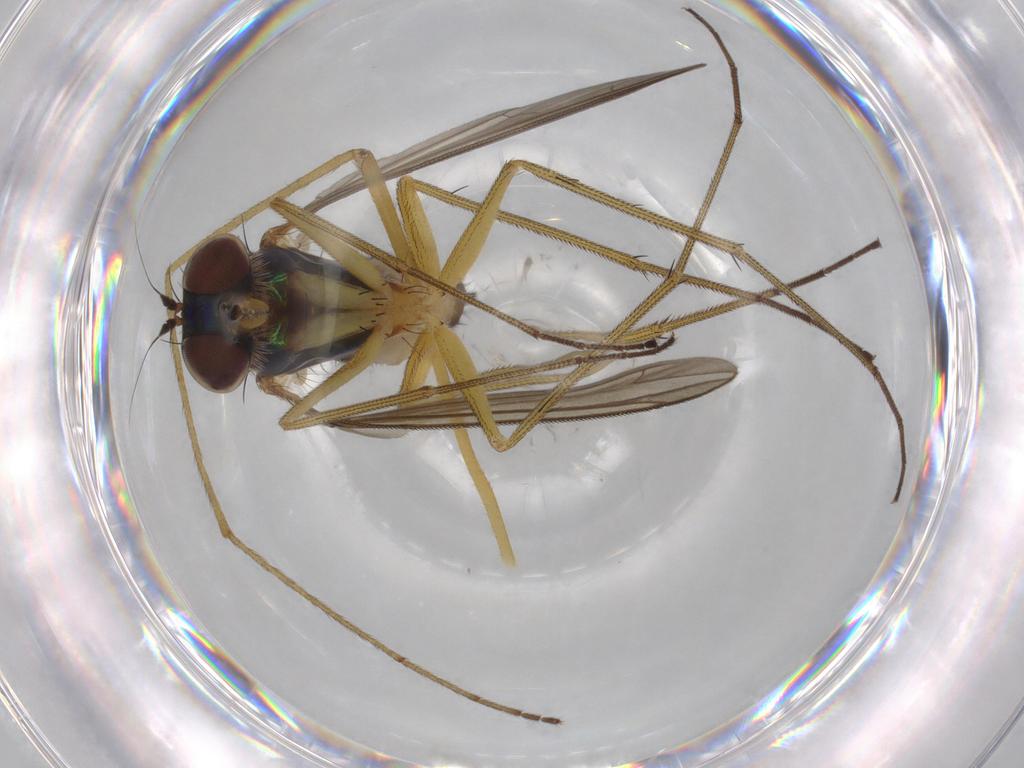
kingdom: Animalia
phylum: Arthropoda
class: Insecta
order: Diptera
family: Dolichopodidae
